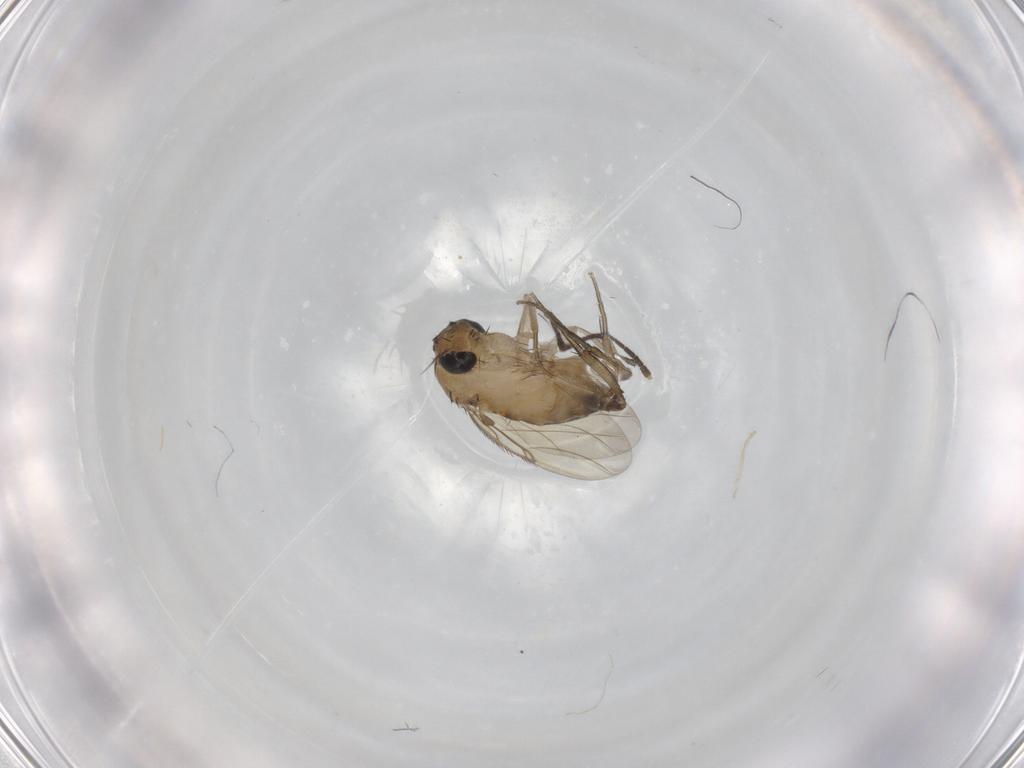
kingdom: Animalia
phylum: Arthropoda
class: Insecta
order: Diptera
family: Phoridae
